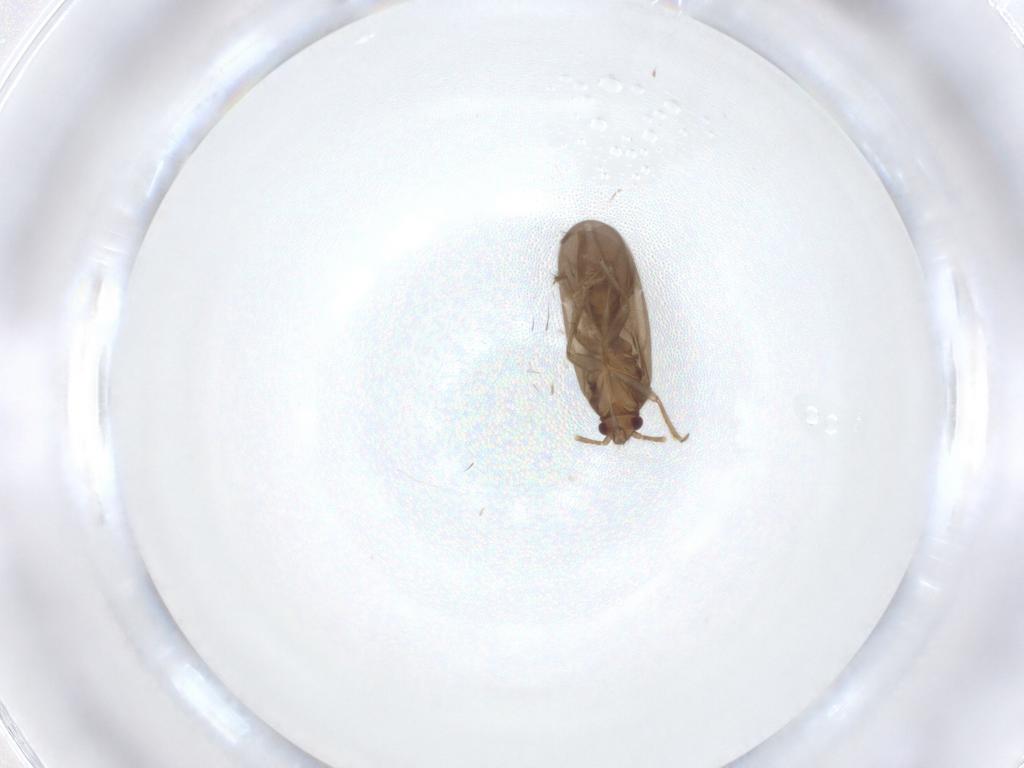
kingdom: Animalia
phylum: Arthropoda
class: Insecta
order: Hemiptera
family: Ceratocombidae
